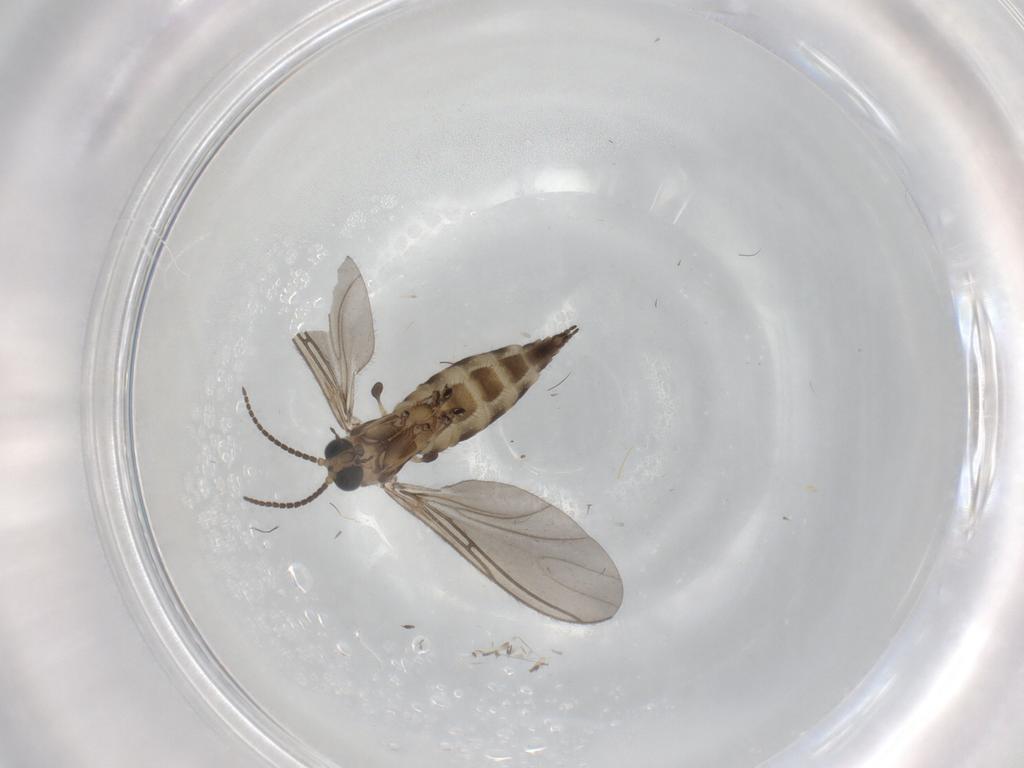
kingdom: Animalia
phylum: Arthropoda
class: Insecta
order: Diptera
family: Sciaridae
